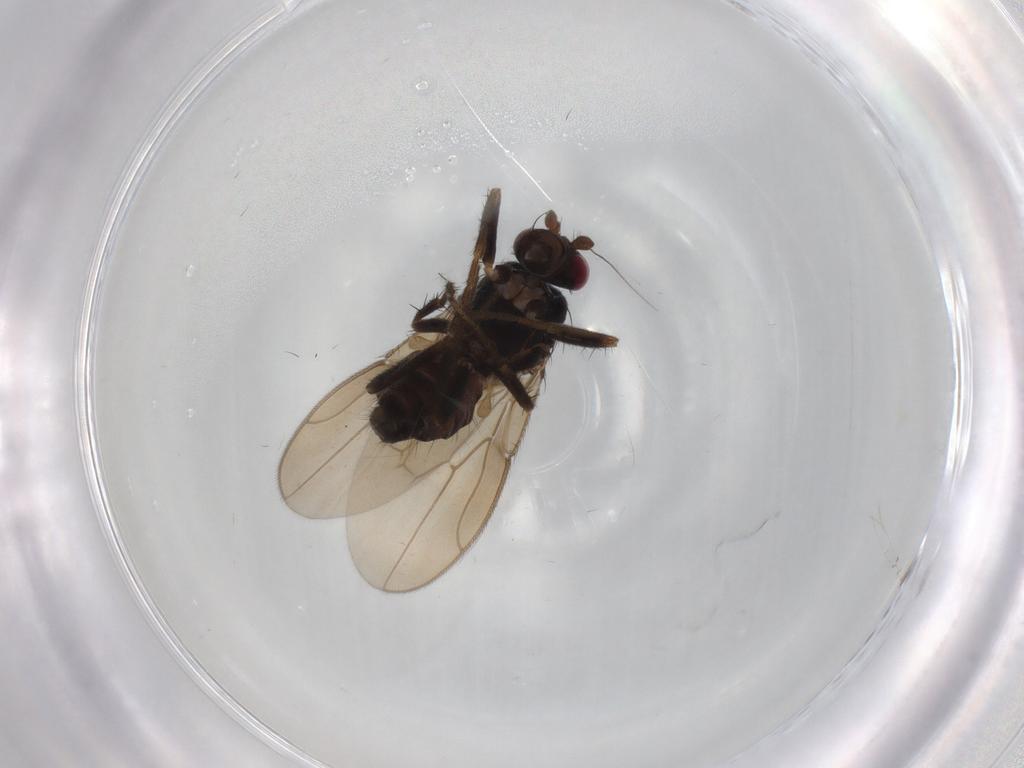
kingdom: Animalia
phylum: Arthropoda
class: Insecta
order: Diptera
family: Sphaeroceridae
